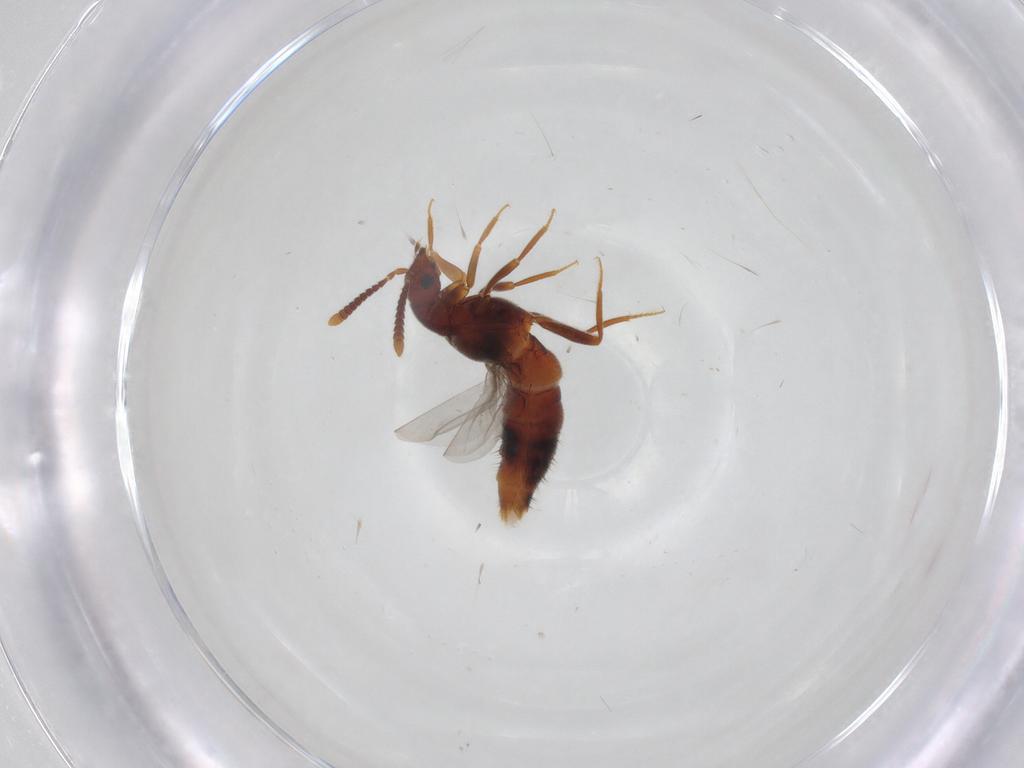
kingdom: Animalia
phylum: Arthropoda
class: Insecta
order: Coleoptera
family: Staphylinidae
